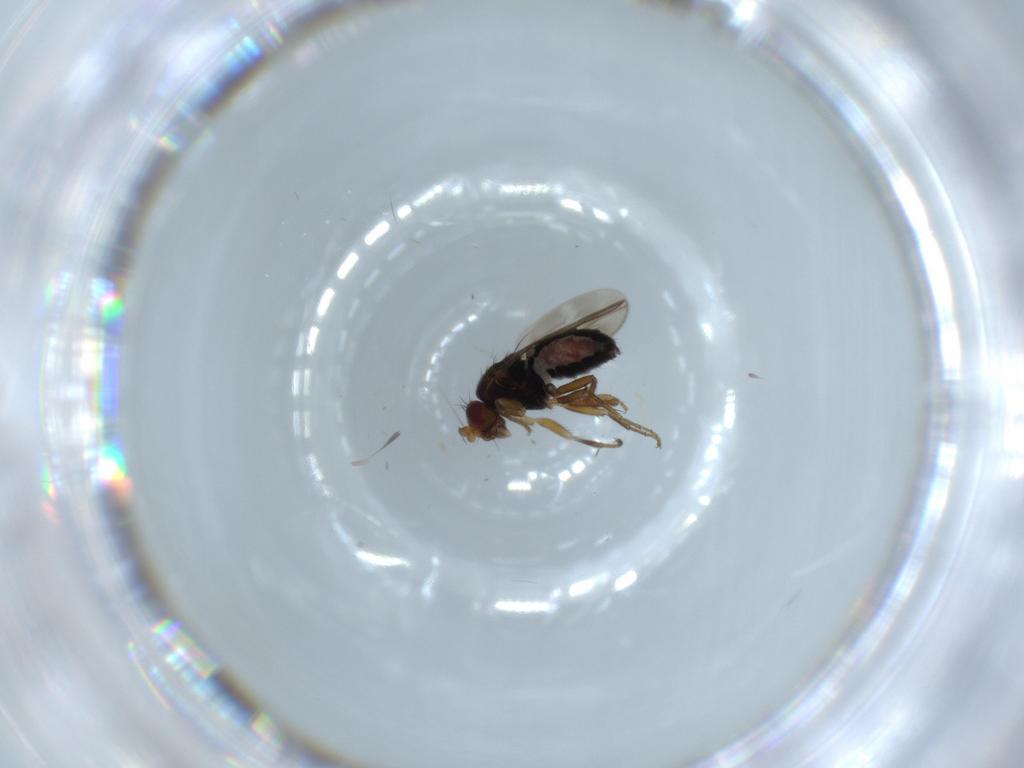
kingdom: Animalia
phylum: Arthropoda
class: Insecta
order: Diptera
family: Sphaeroceridae
